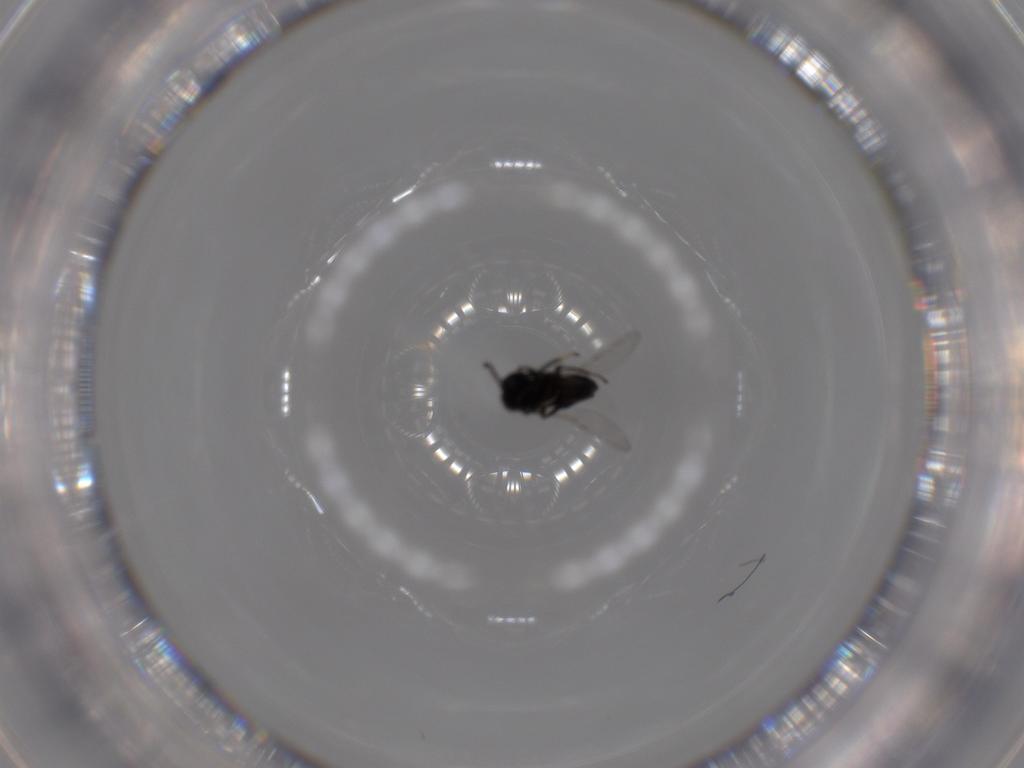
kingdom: Animalia
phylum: Arthropoda
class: Insecta
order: Hymenoptera
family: Encyrtidae
